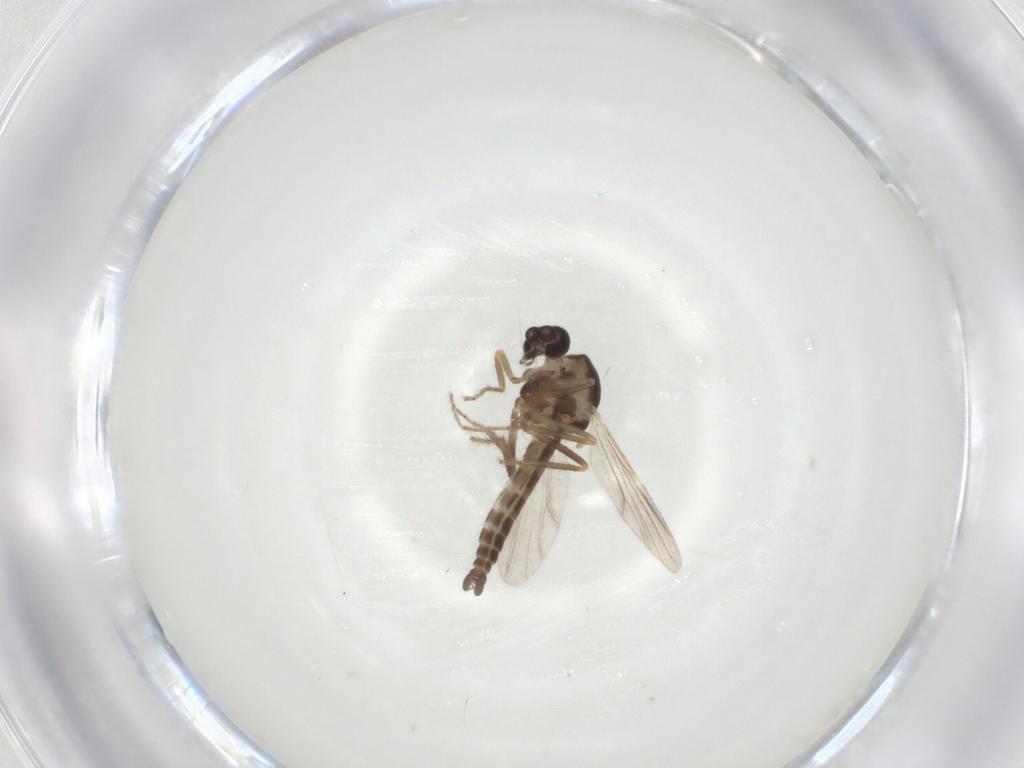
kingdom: Animalia
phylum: Arthropoda
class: Insecta
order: Diptera
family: Ceratopogonidae
